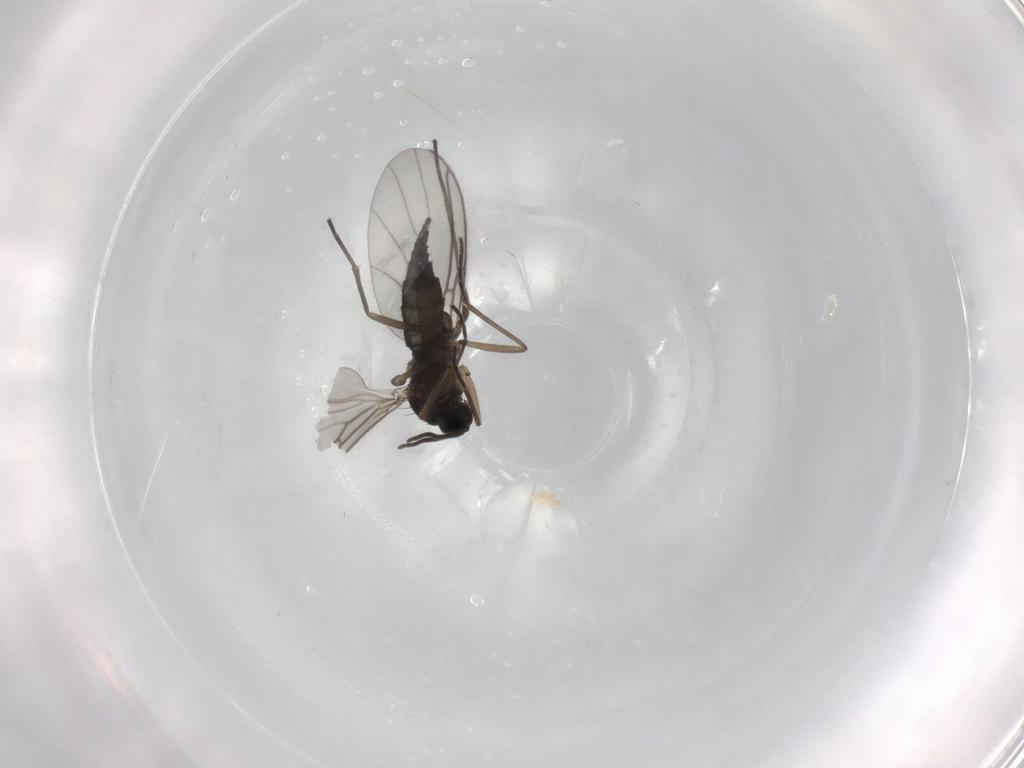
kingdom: Animalia
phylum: Arthropoda
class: Insecta
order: Diptera
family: Sciaridae
